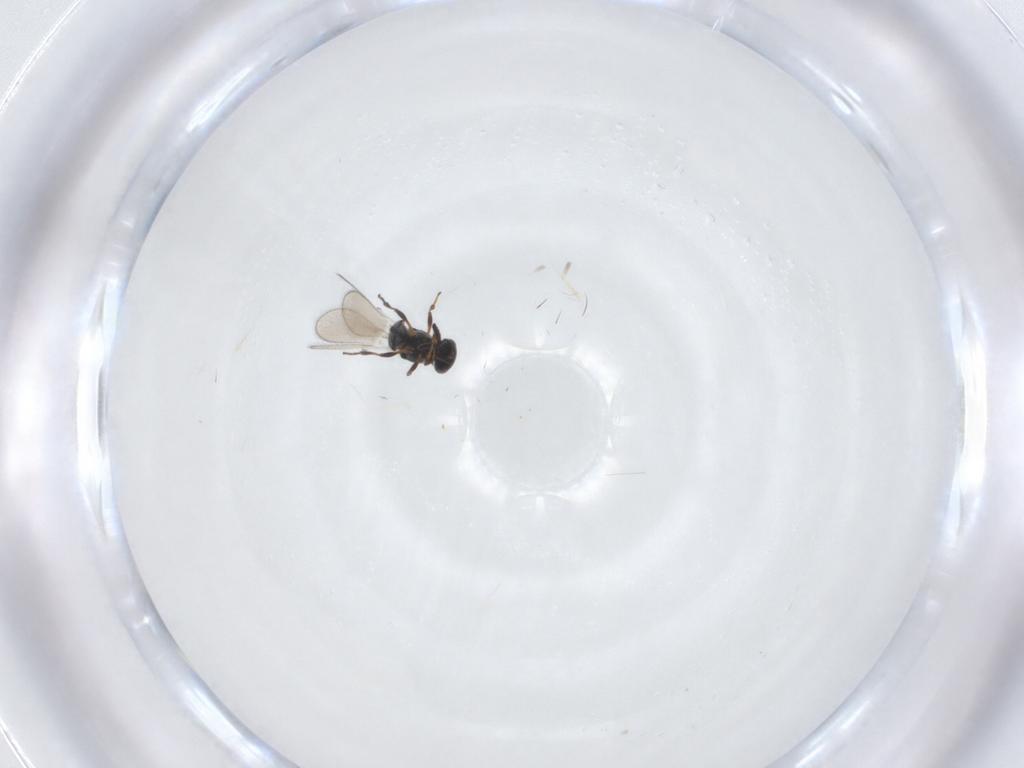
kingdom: Animalia
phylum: Arthropoda
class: Insecta
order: Hymenoptera
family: Platygastridae
